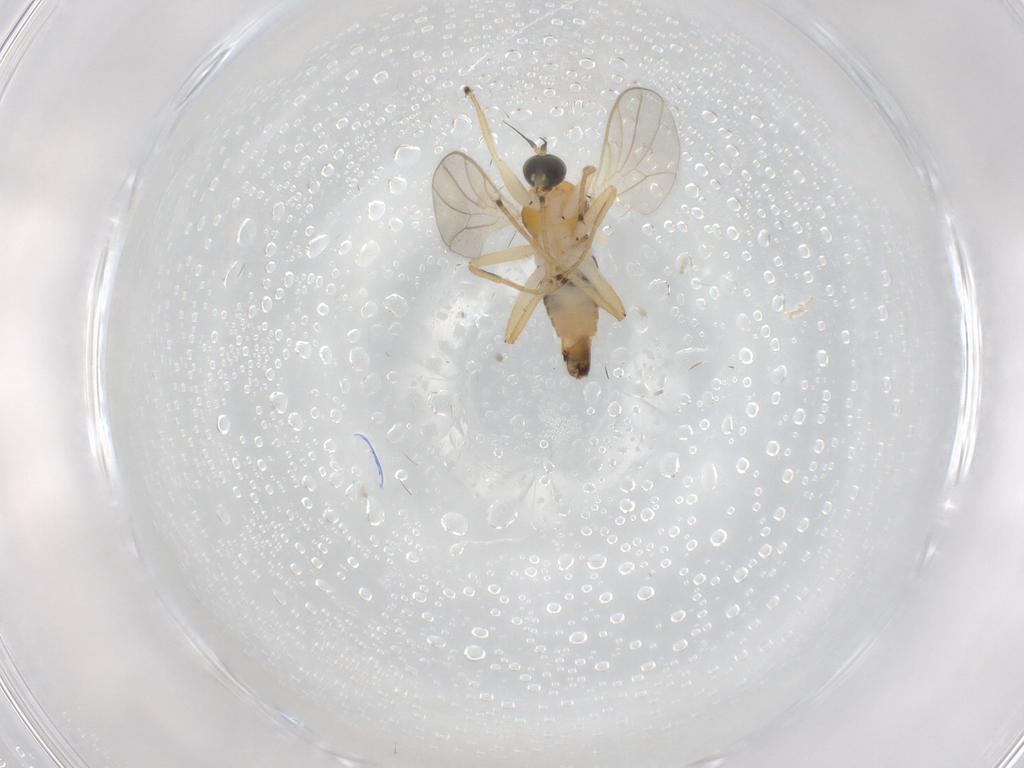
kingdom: Animalia
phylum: Arthropoda
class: Insecta
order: Diptera
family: Hybotidae
